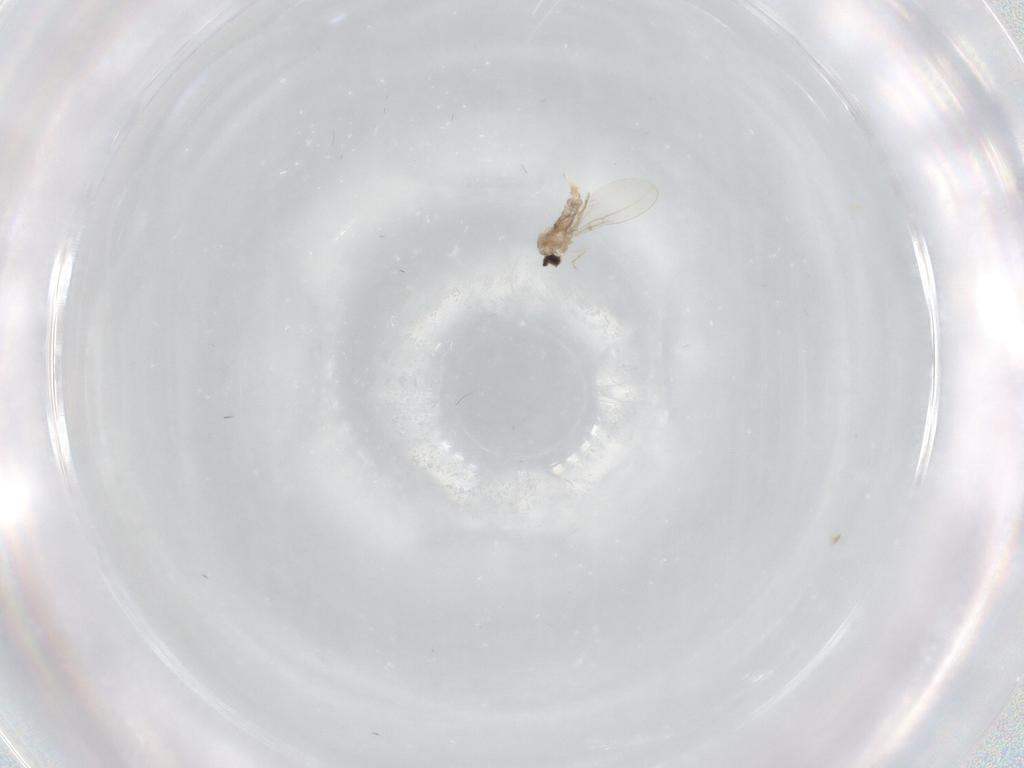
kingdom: Animalia
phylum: Arthropoda
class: Insecta
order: Diptera
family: Cecidomyiidae
